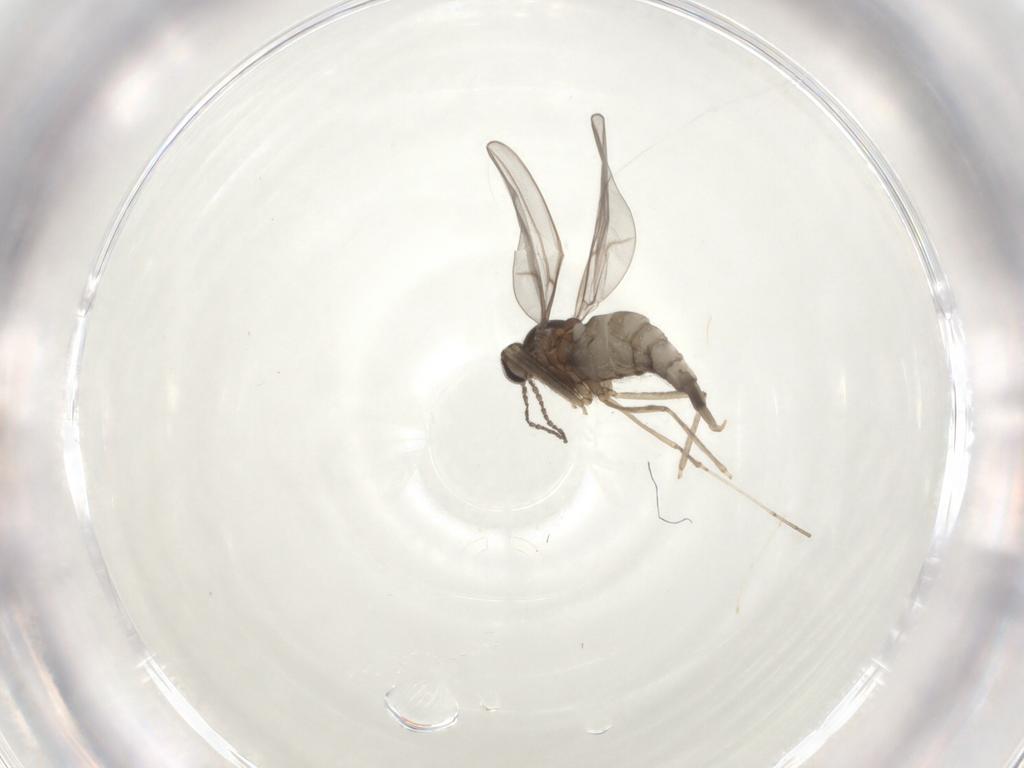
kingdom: Animalia
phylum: Arthropoda
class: Insecta
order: Diptera
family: Cecidomyiidae
